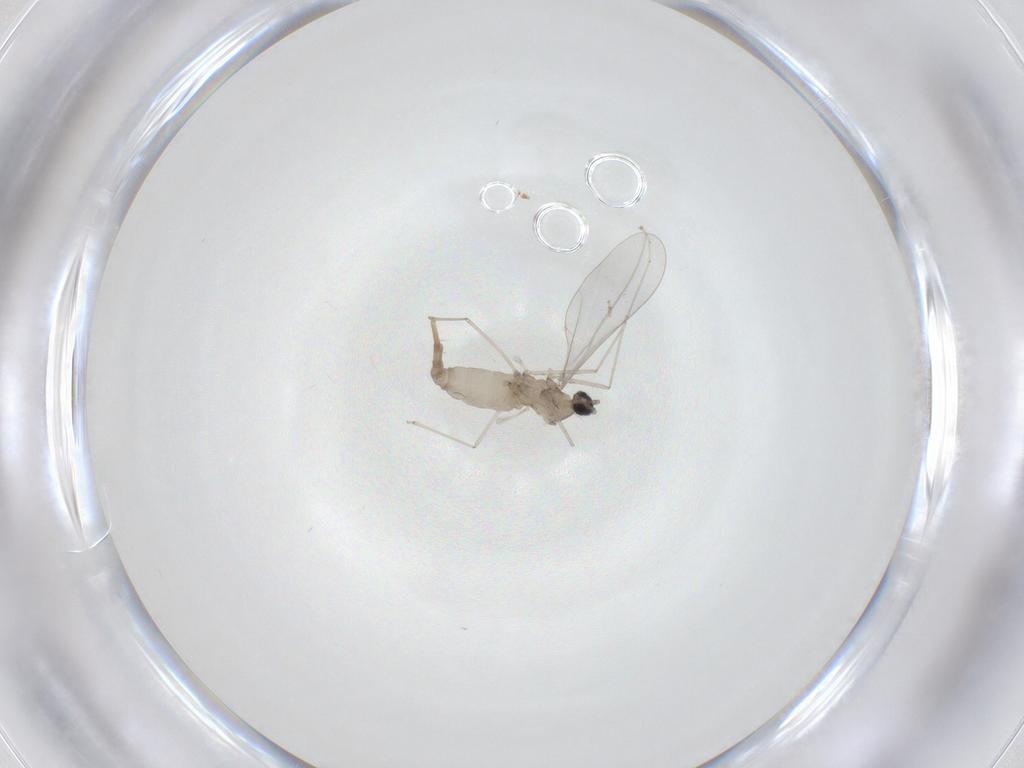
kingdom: Animalia
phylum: Arthropoda
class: Insecta
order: Diptera
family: Cecidomyiidae
